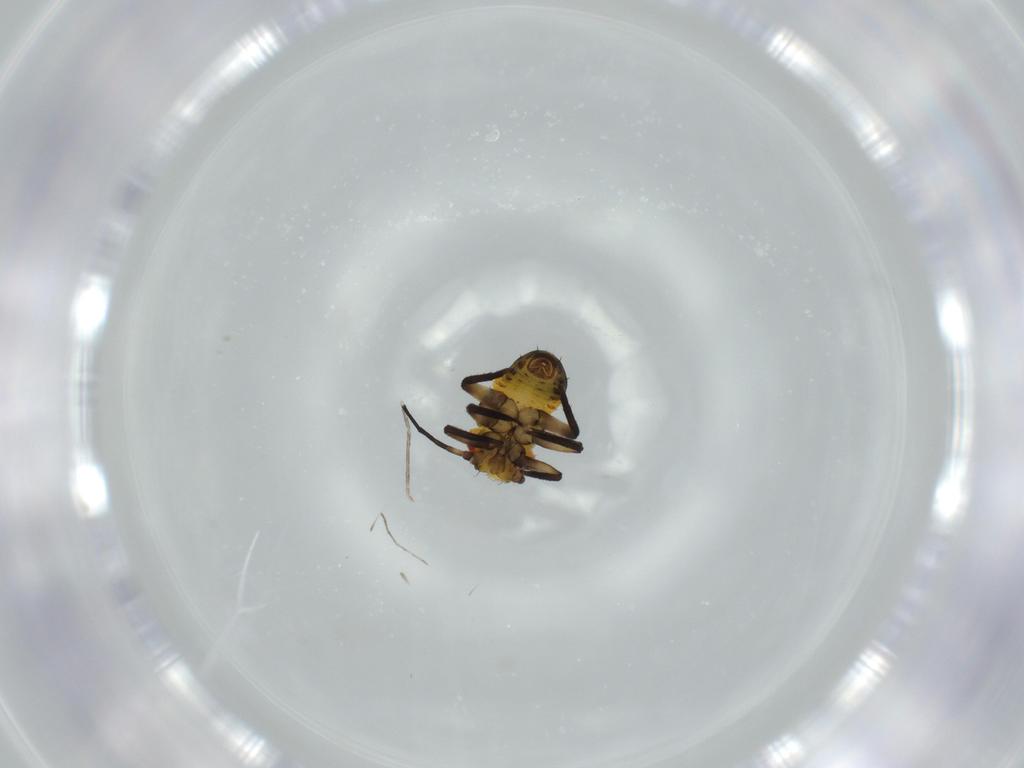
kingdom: Animalia
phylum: Arthropoda
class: Insecta
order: Hemiptera
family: Psyllidae
